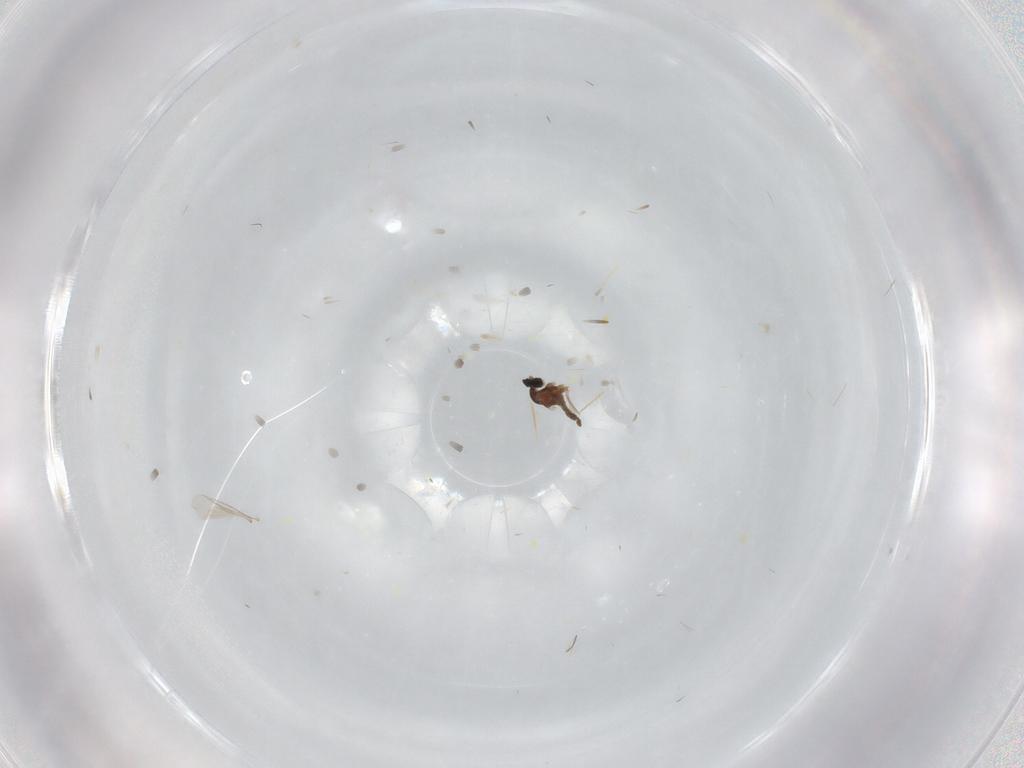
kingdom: Animalia
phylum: Arthropoda
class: Insecta
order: Diptera
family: Cecidomyiidae
